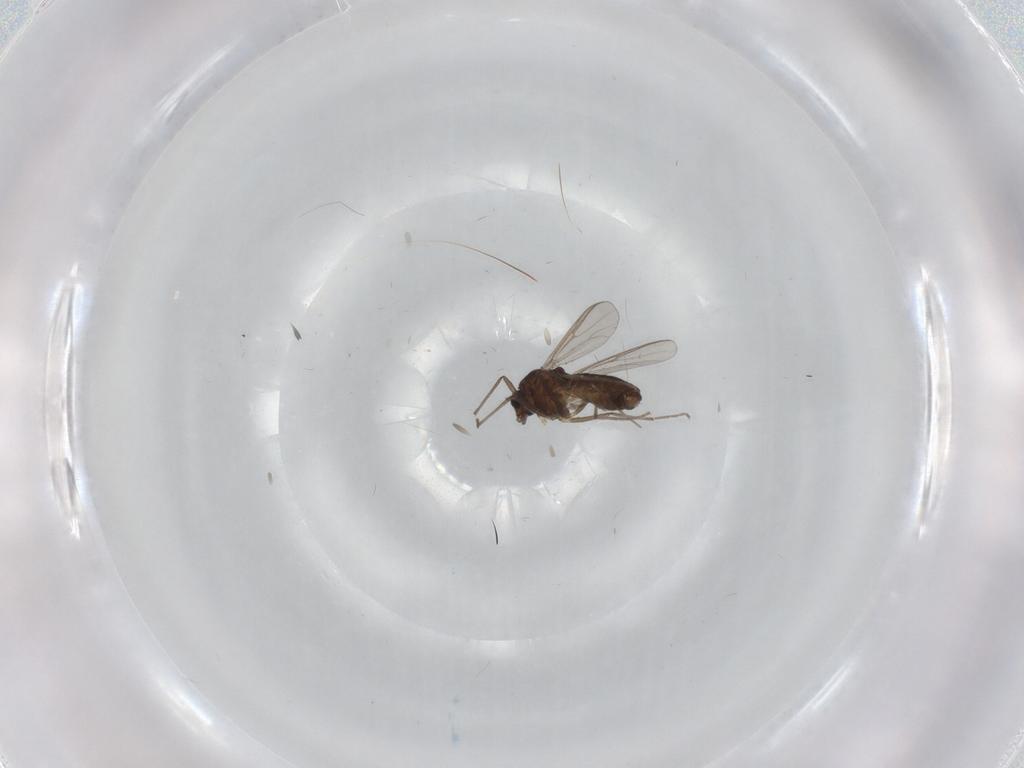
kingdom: Animalia
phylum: Arthropoda
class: Insecta
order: Diptera
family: Chironomidae
